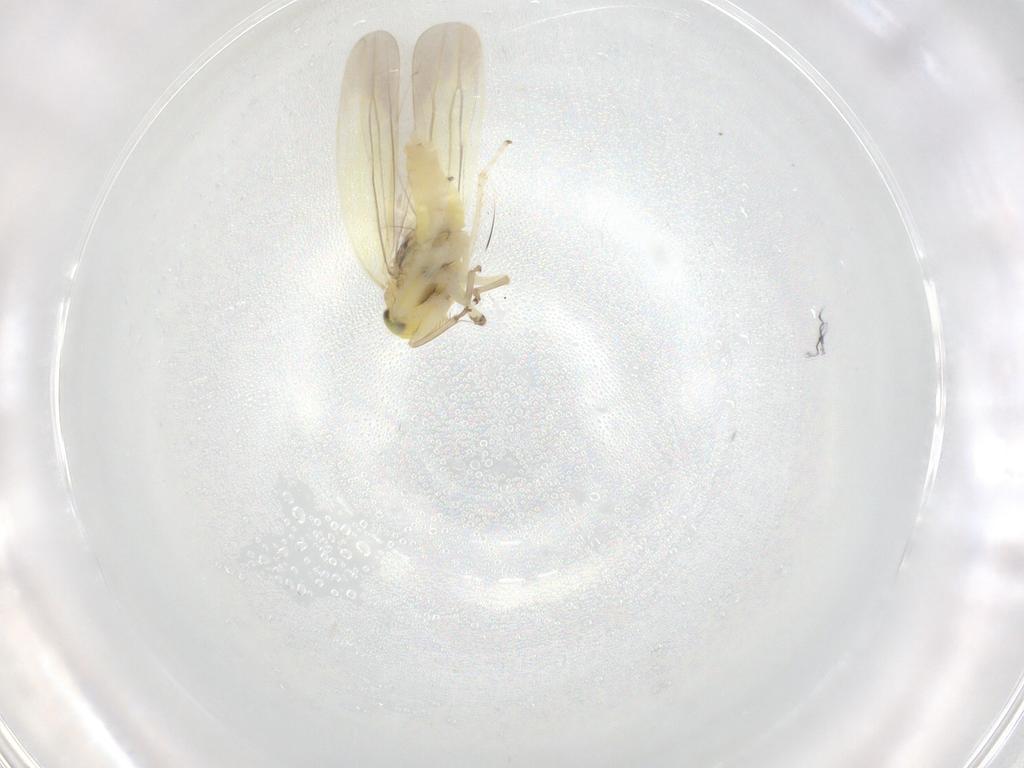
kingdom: Animalia
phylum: Arthropoda
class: Insecta
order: Hemiptera
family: Cicadellidae
